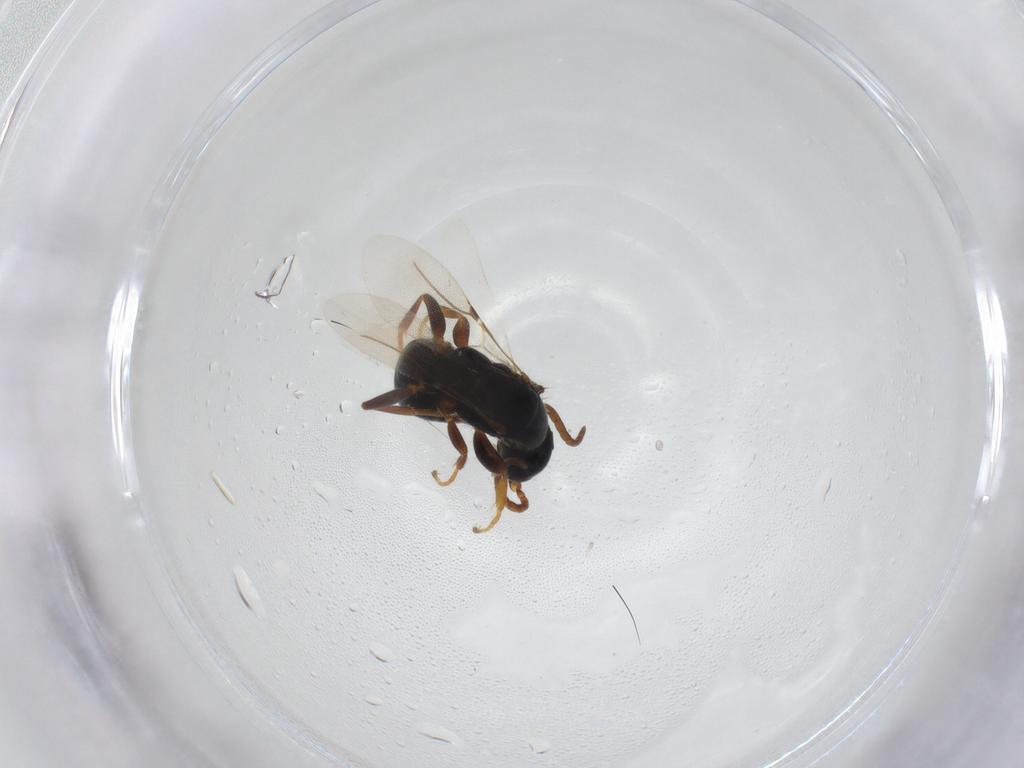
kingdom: Animalia
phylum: Arthropoda
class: Insecta
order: Hymenoptera
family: Bethylidae
